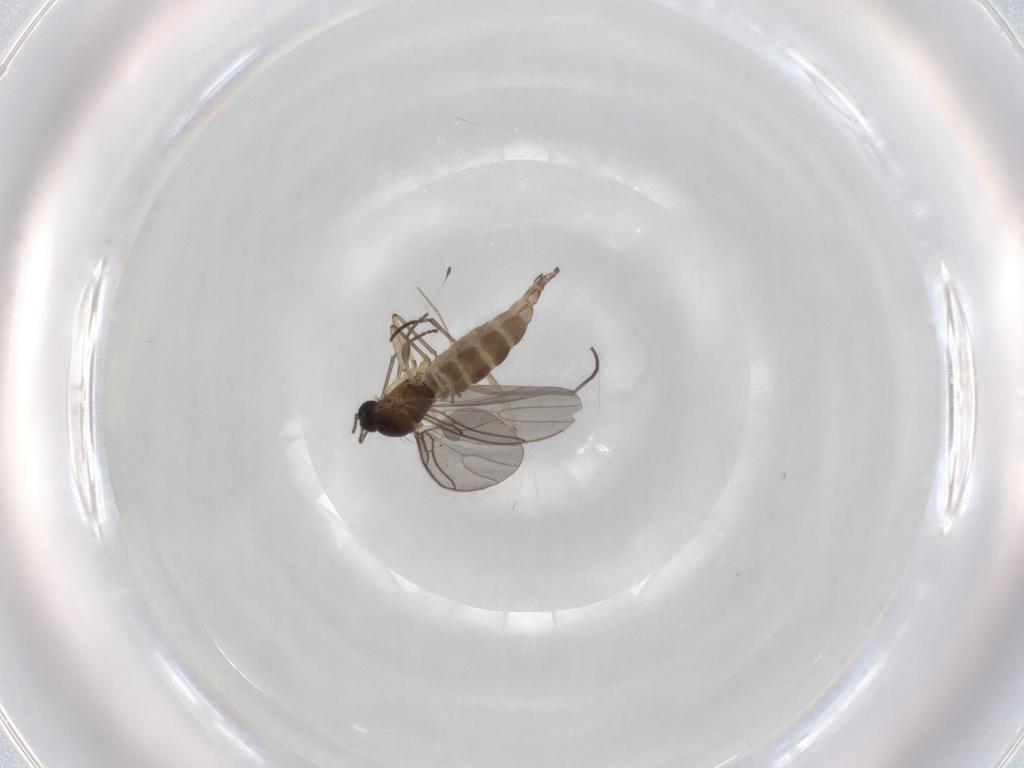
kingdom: Animalia
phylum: Arthropoda
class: Insecta
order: Diptera
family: Sciaridae
